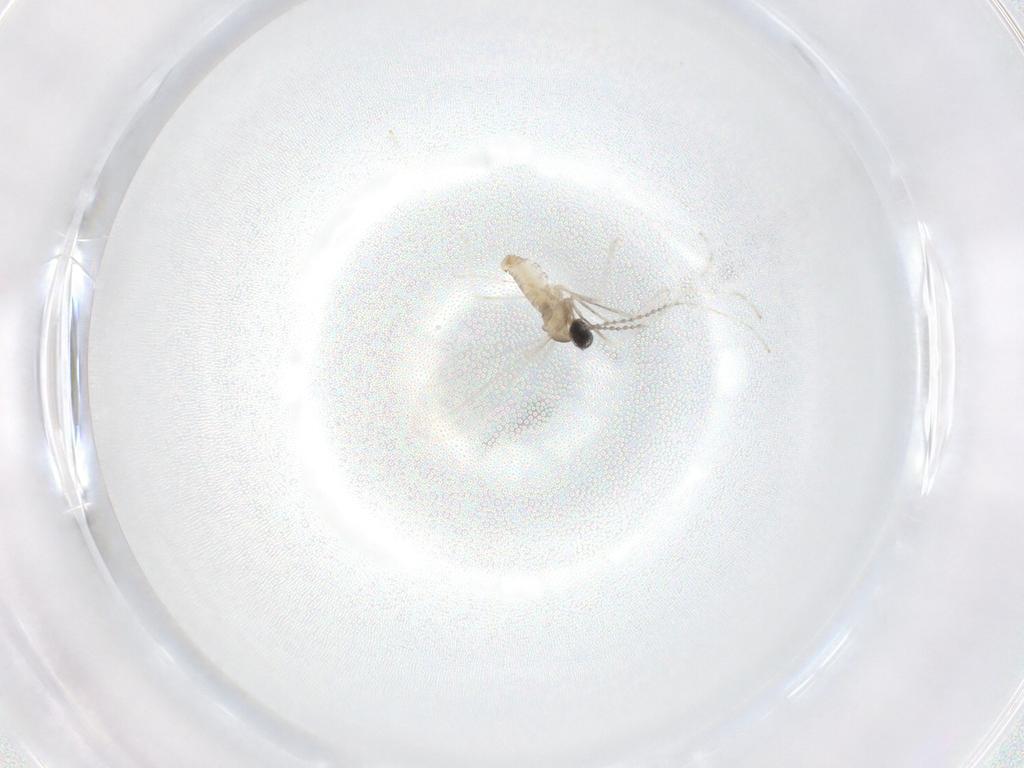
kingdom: Animalia
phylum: Arthropoda
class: Insecta
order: Diptera
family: Cecidomyiidae
